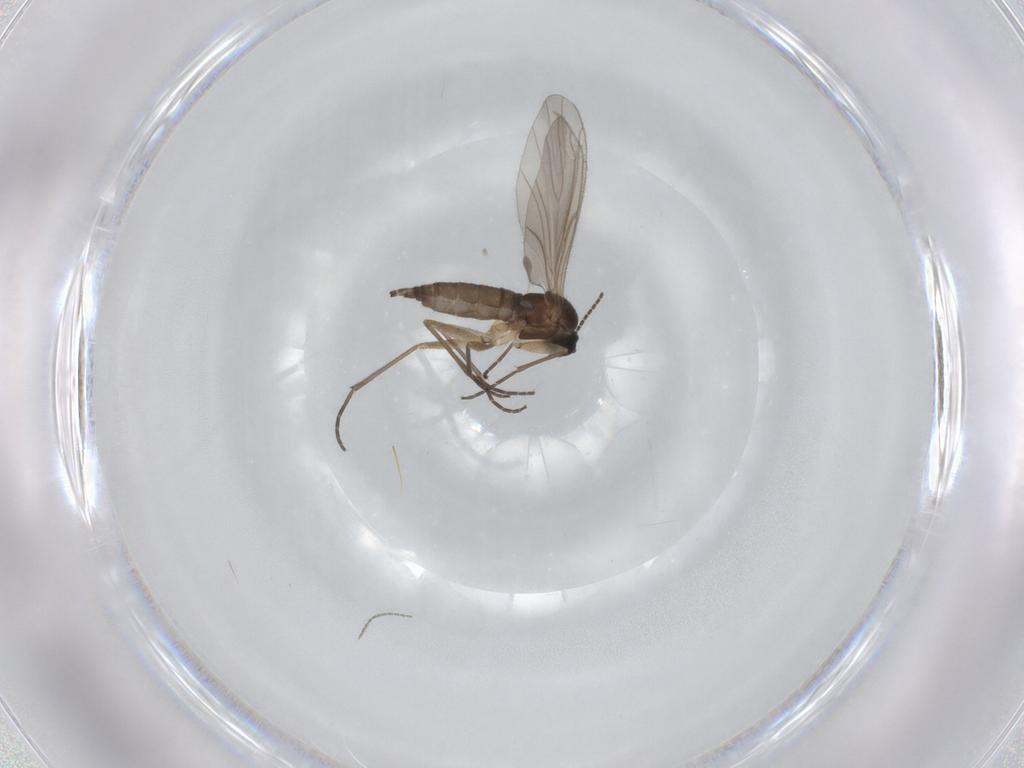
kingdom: Animalia
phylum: Arthropoda
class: Insecta
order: Diptera
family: Sciaridae
